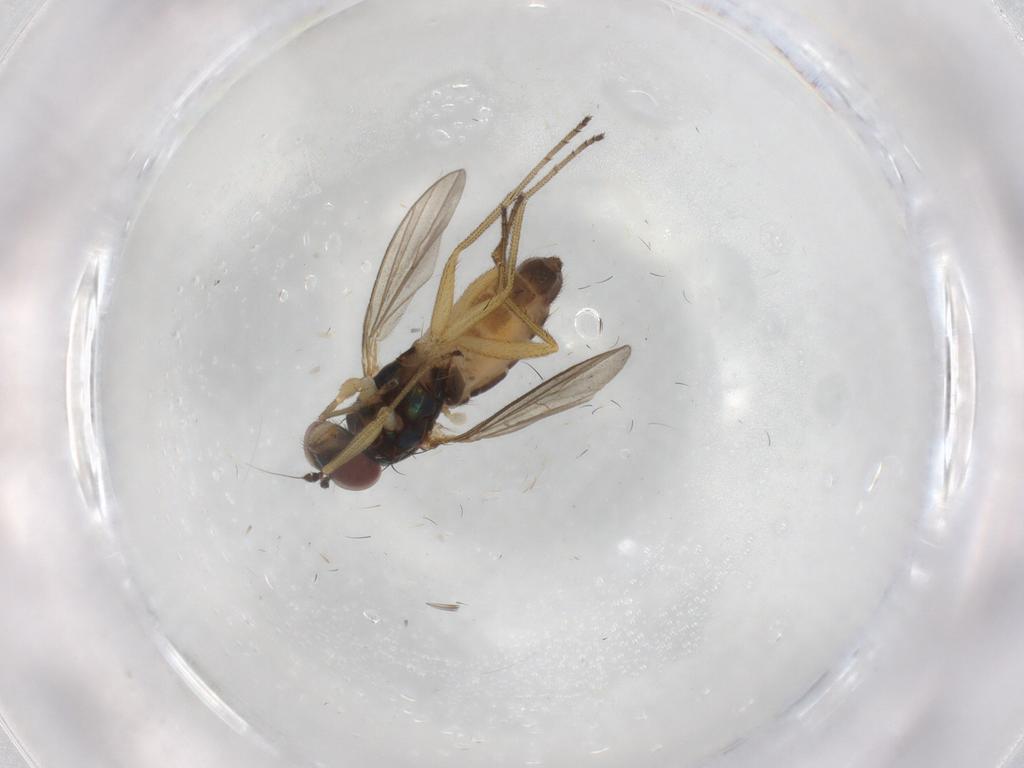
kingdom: Animalia
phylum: Arthropoda
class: Insecta
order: Diptera
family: Dolichopodidae
